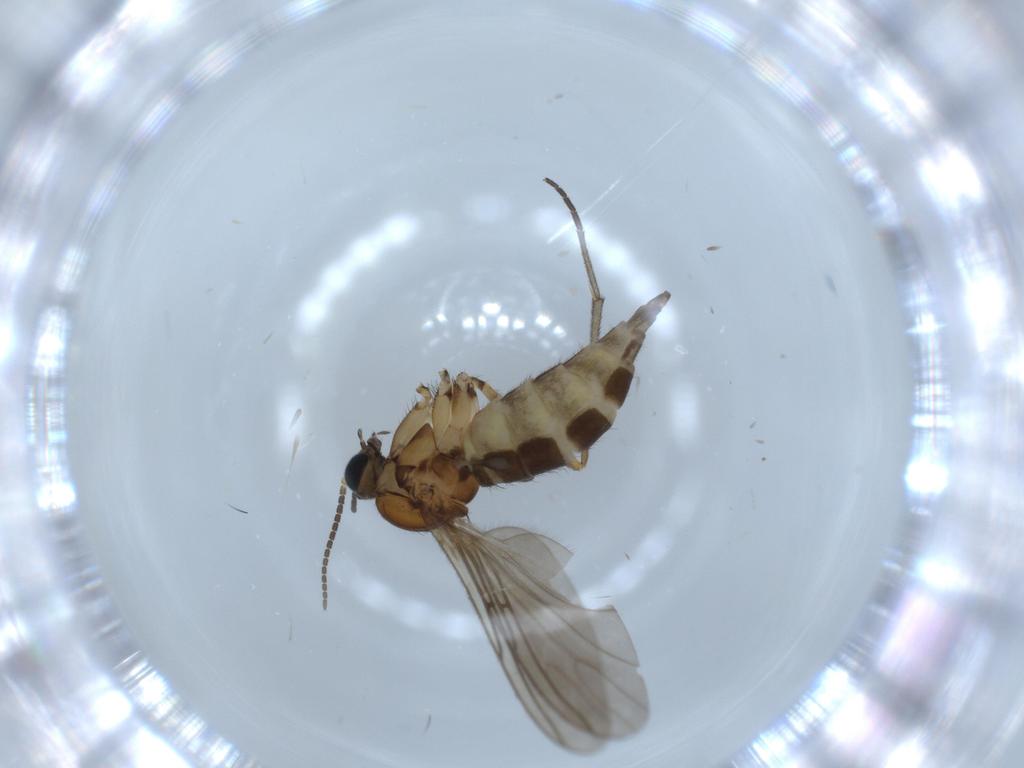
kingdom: Animalia
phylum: Arthropoda
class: Insecta
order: Diptera
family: Sciaridae
